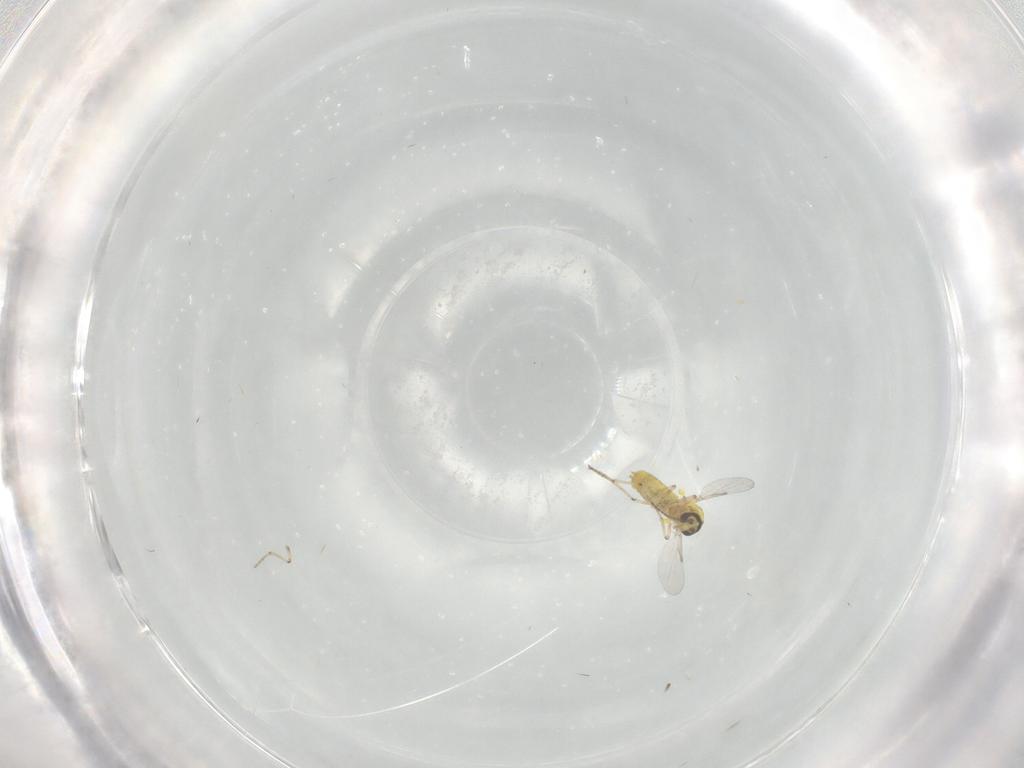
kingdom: Animalia
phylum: Arthropoda
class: Insecta
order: Diptera
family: Ceratopogonidae
